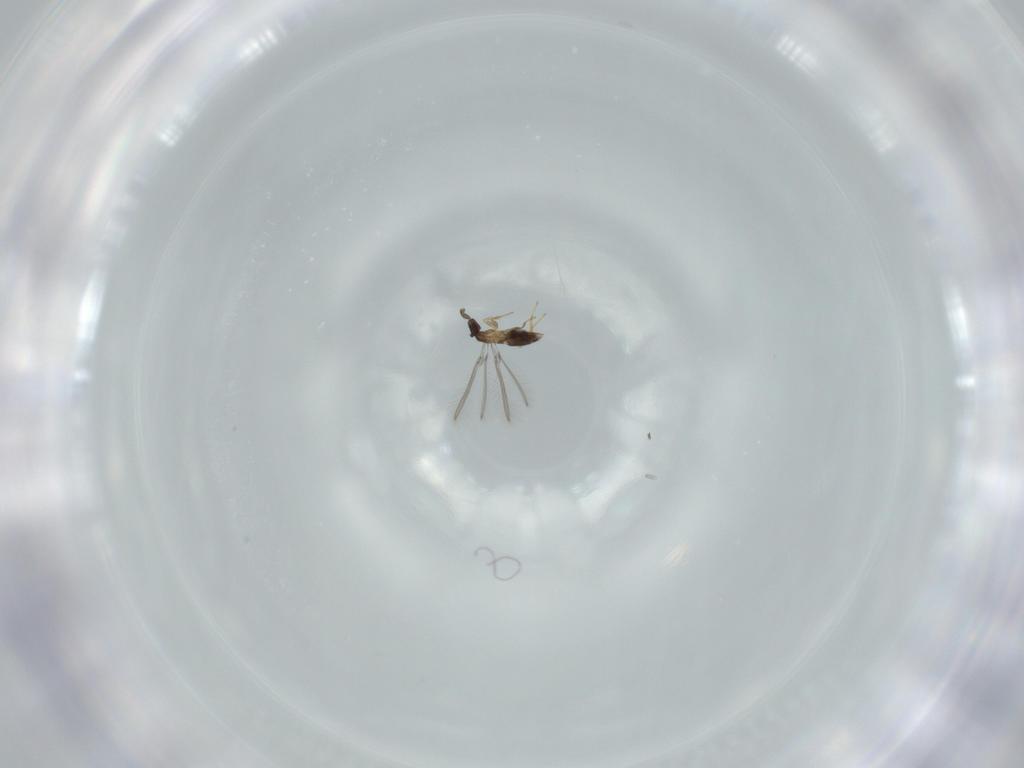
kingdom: Animalia
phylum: Arthropoda
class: Insecta
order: Hymenoptera
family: Mymaridae
